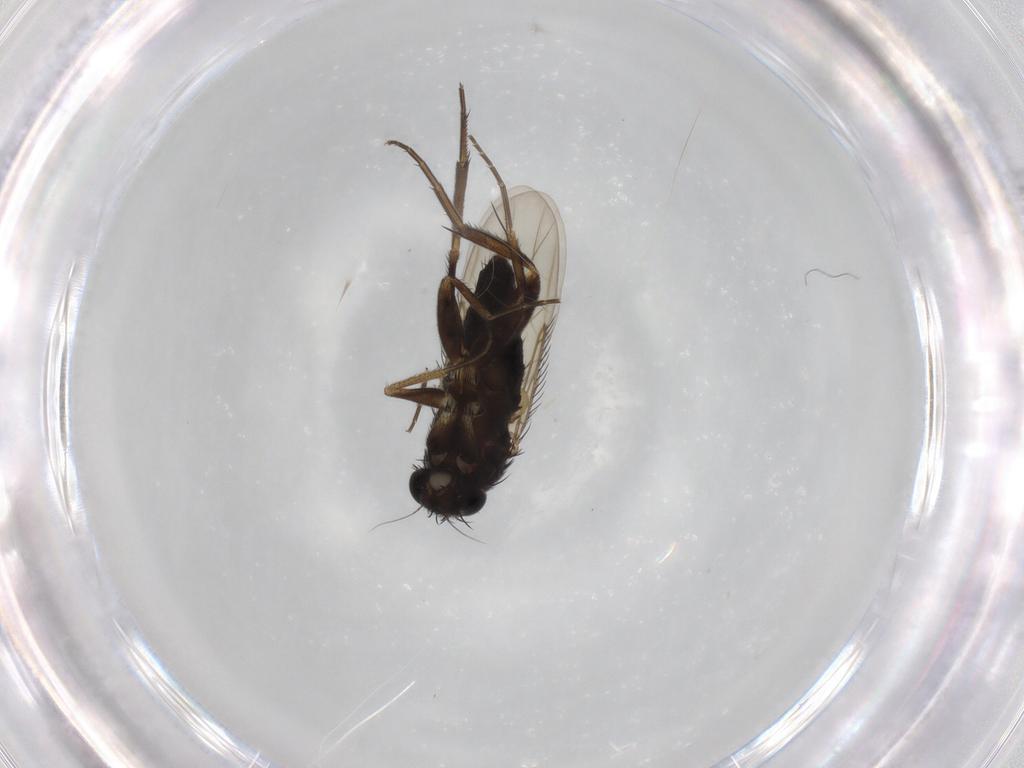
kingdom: Animalia
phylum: Arthropoda
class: Insecta
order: Diptera
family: Phoridae
